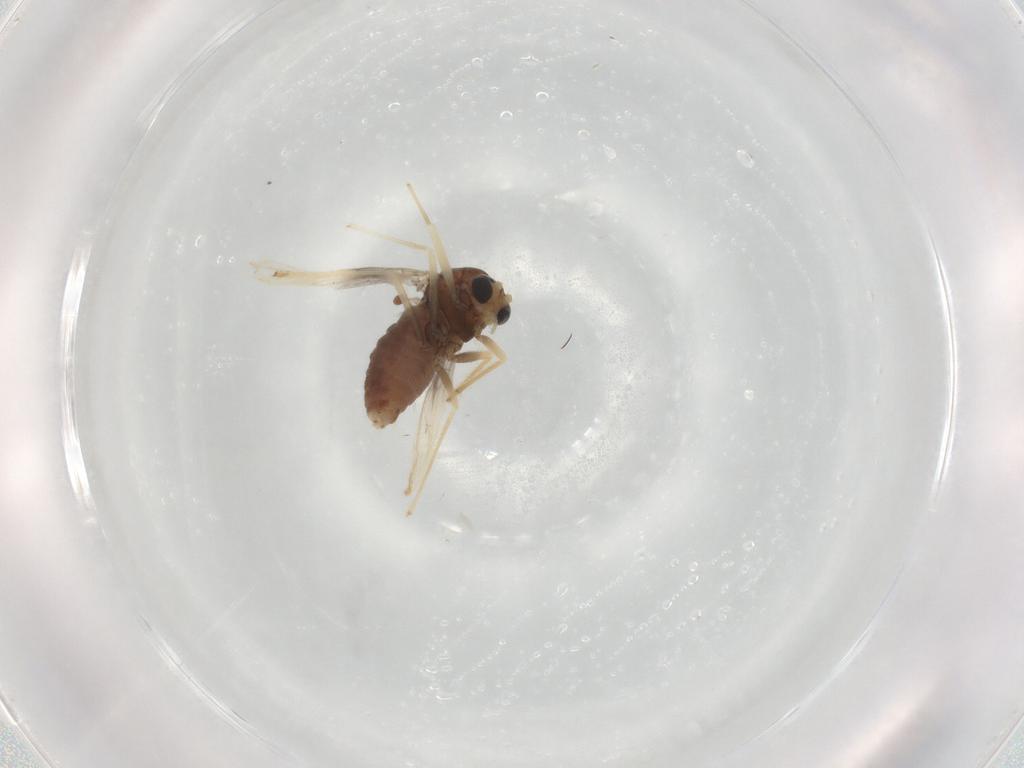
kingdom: Animalia
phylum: Arthropoda
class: Insecta
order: Diptera
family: Chironomidae
